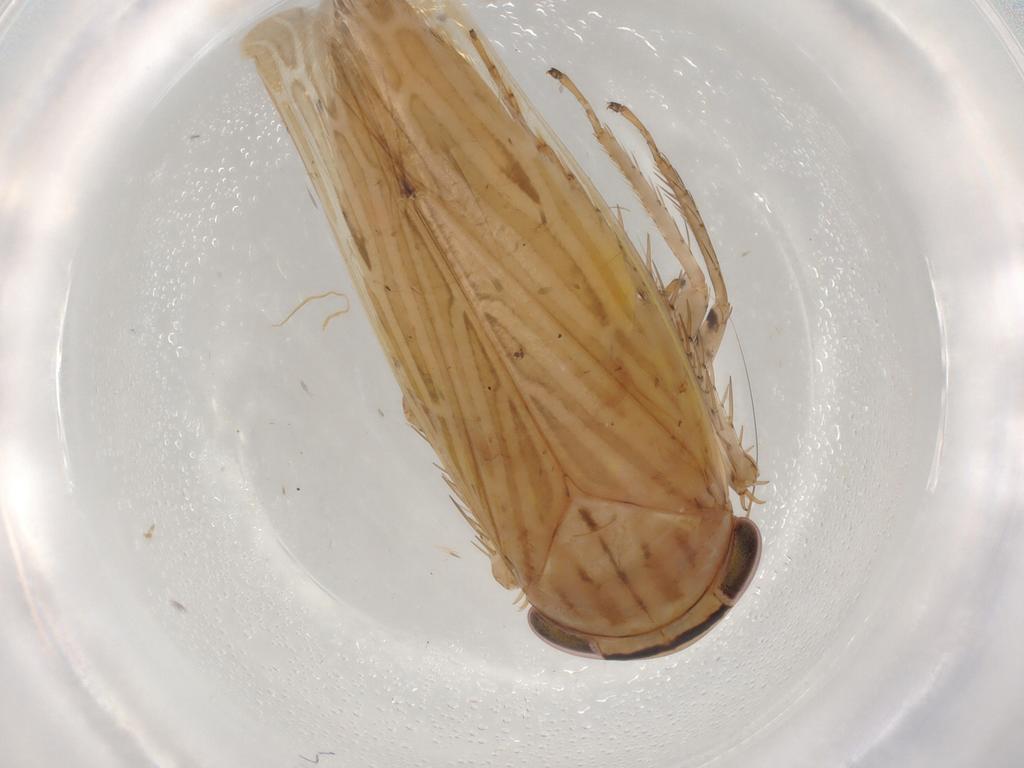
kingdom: Animalia
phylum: Arthropoda
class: Insecta
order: Hemiptera
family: Cicadellidae
